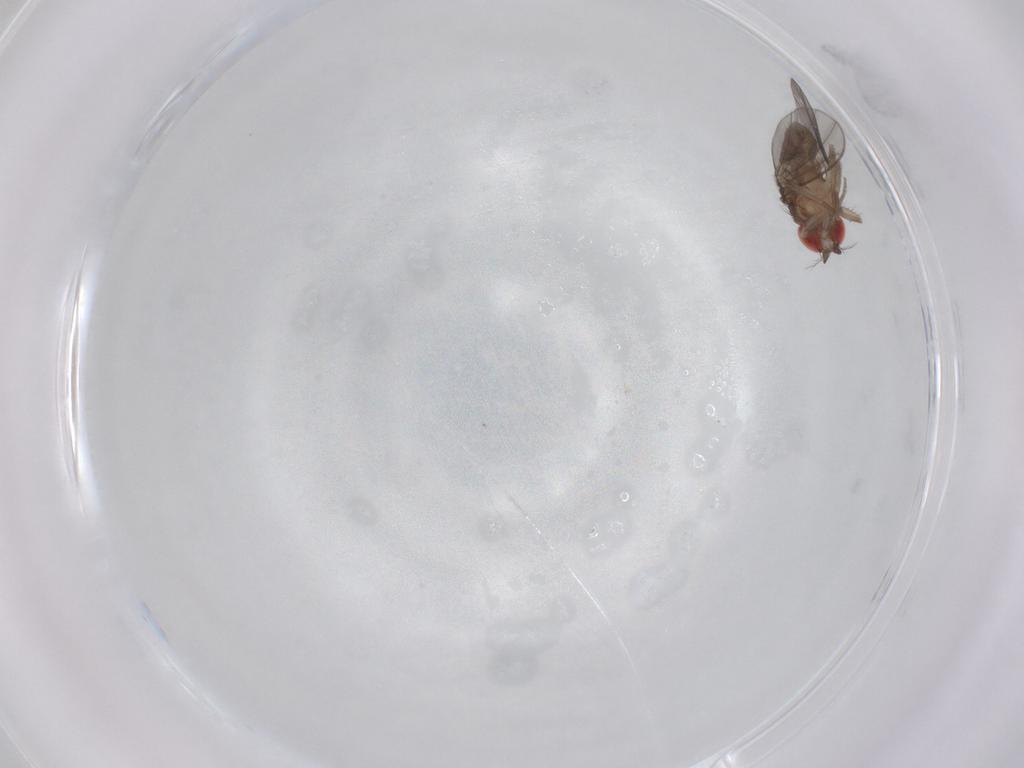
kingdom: Animalia
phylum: Arthropoda
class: Insecta
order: Diptera
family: Drosophilidae
